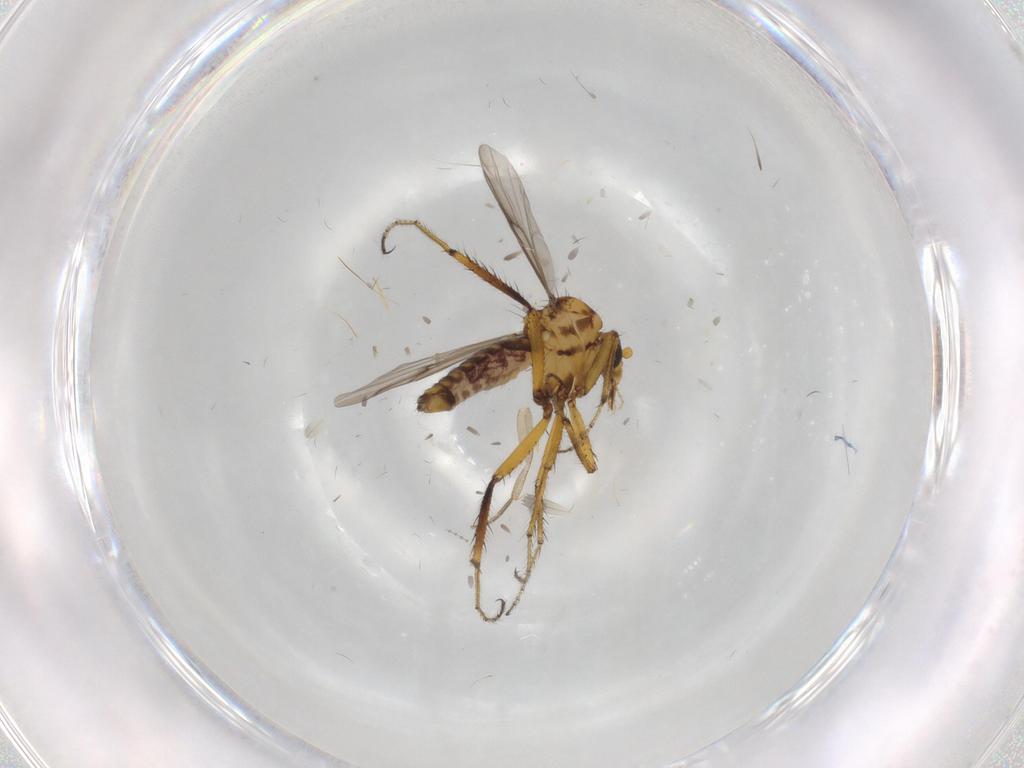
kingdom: Animalia
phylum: Arthropoda
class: Insecta
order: Diptera
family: Ceratopogonidae
